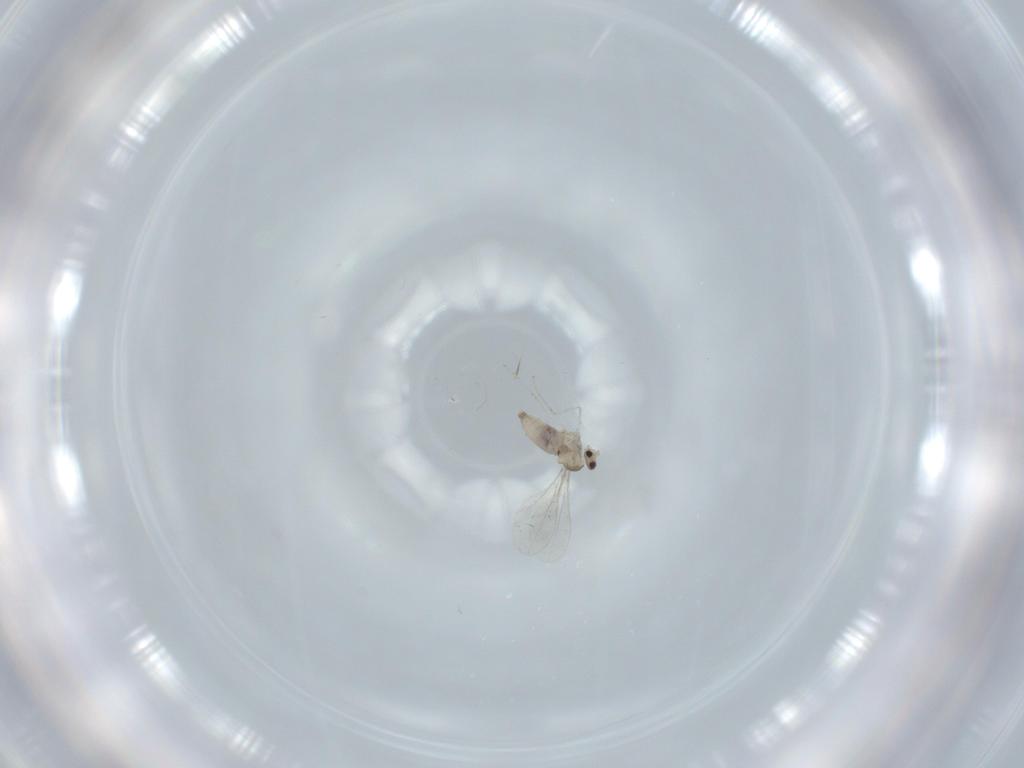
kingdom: Animalia
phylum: Arthropoda
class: Insecta
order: Diptera
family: Cecidomyiidae
